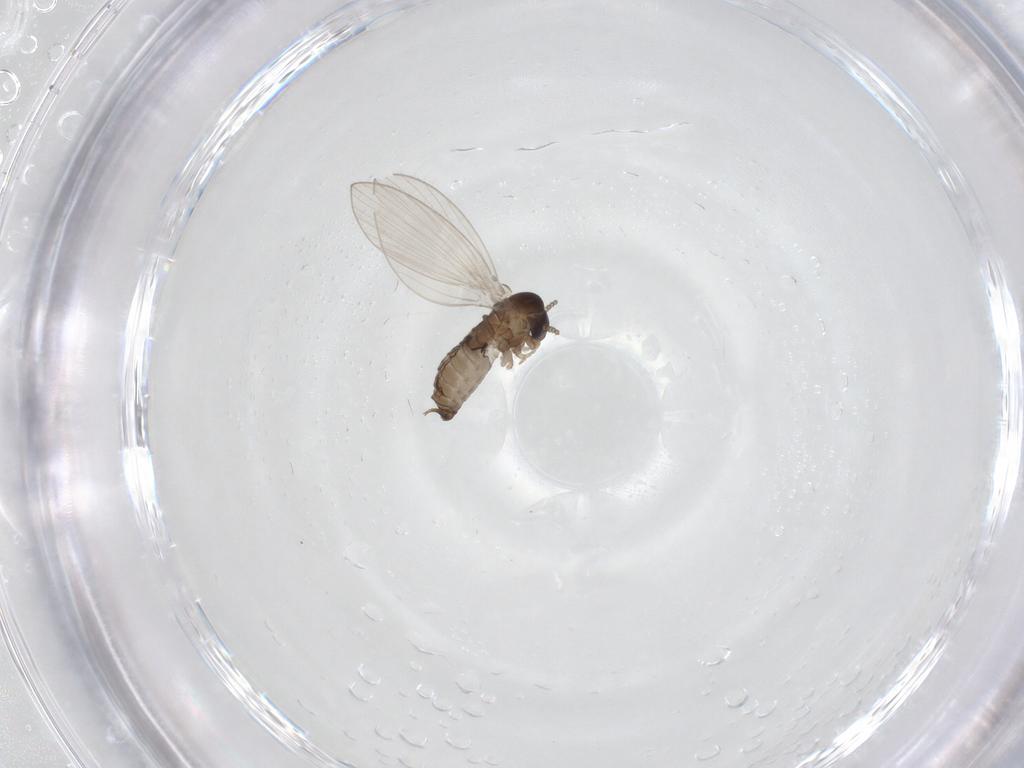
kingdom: Animalia
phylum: Arthropoda
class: Insecta
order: Diptera
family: Psychodidae
